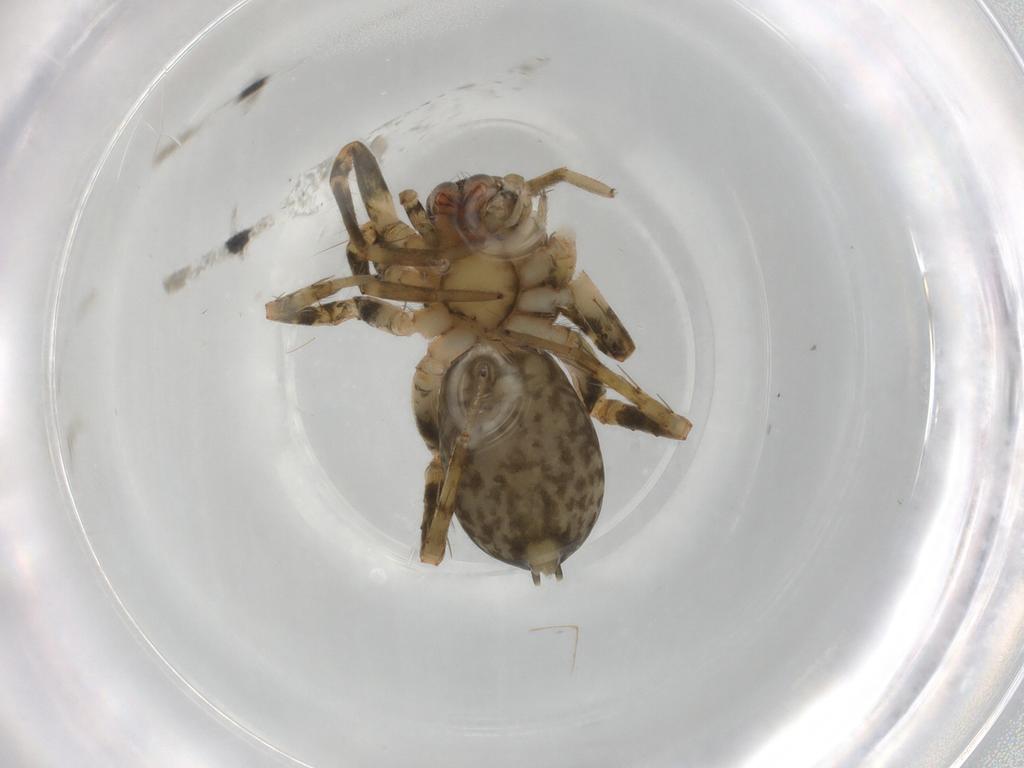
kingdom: Animalia
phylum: Arthropoda
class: Arachnida
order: Araneae
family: Anyphaenidae
